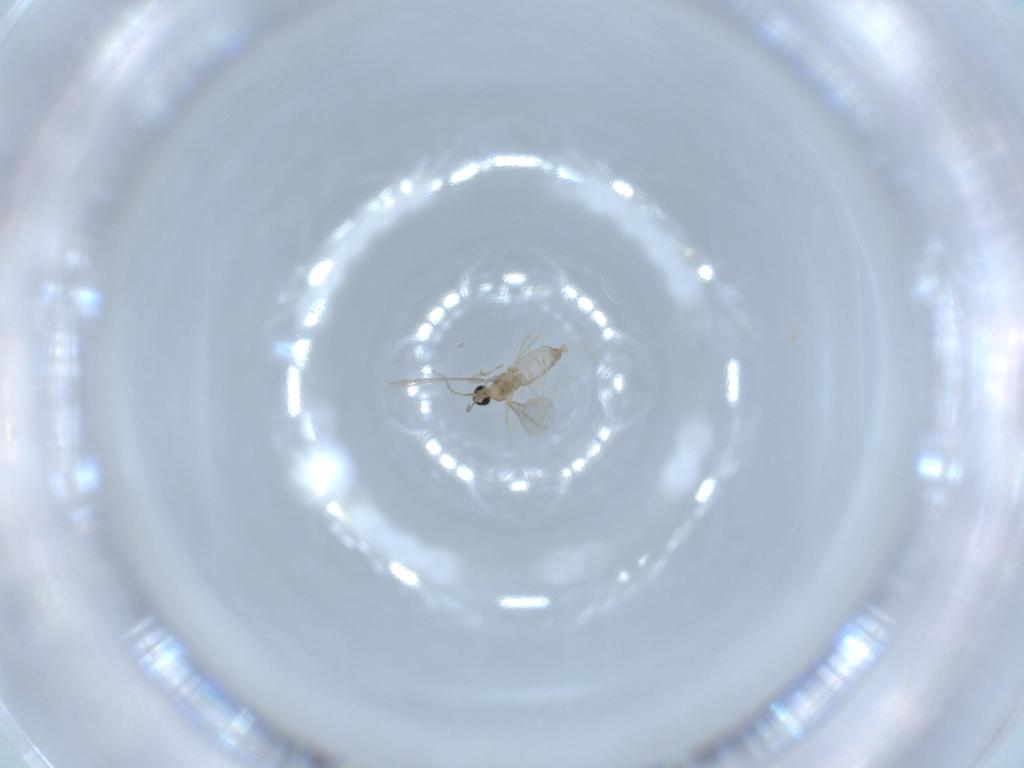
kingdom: Animalia
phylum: Arthropoda
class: Insecta
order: Diptera
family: Cecidomyiidae
